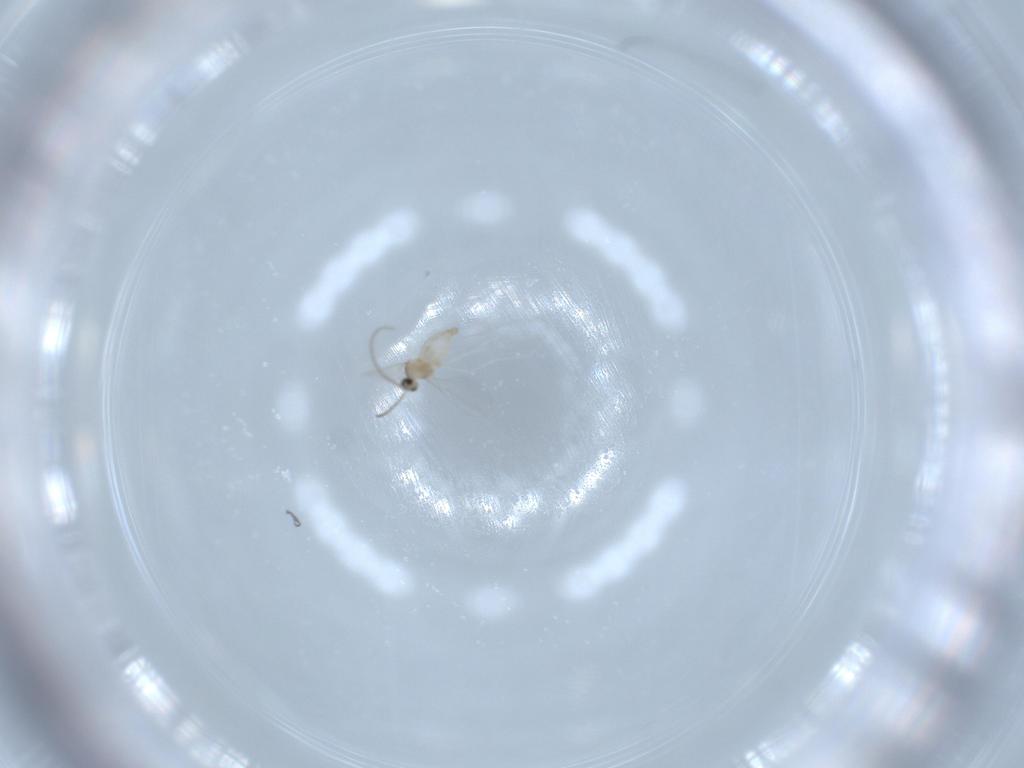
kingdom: Animalia
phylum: Arthropoda
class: Insecta
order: Diptera
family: Cecidomyiidae
